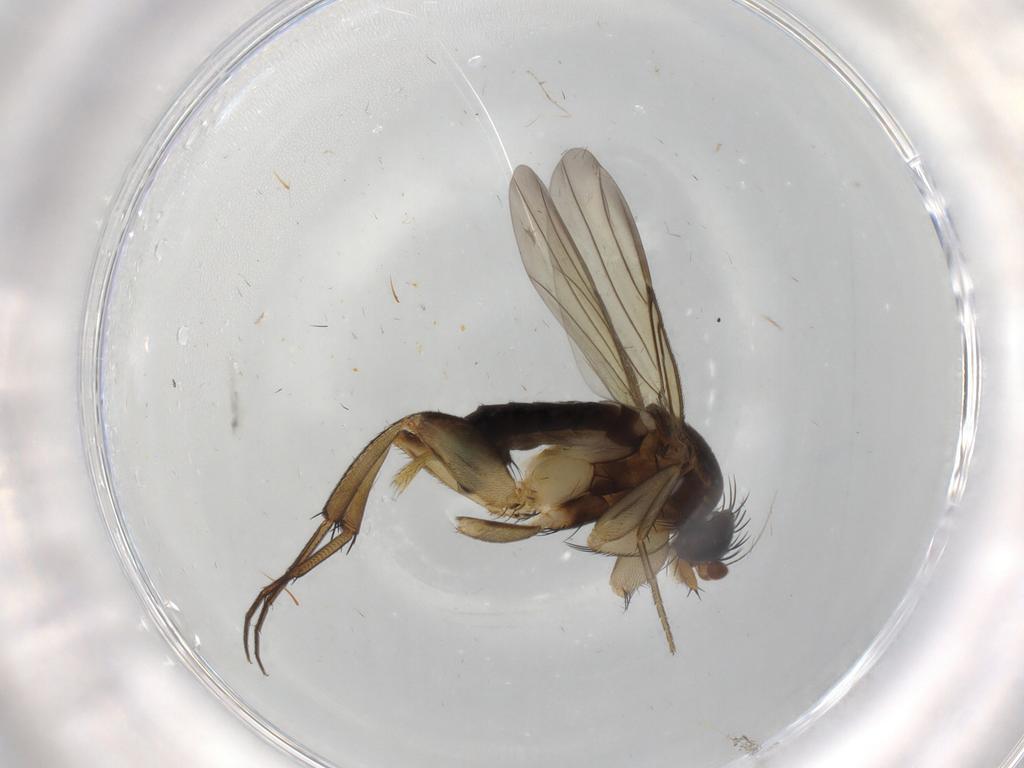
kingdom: Animalia
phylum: Arthropoda
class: Insecta
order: Diptera
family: Phoridae
